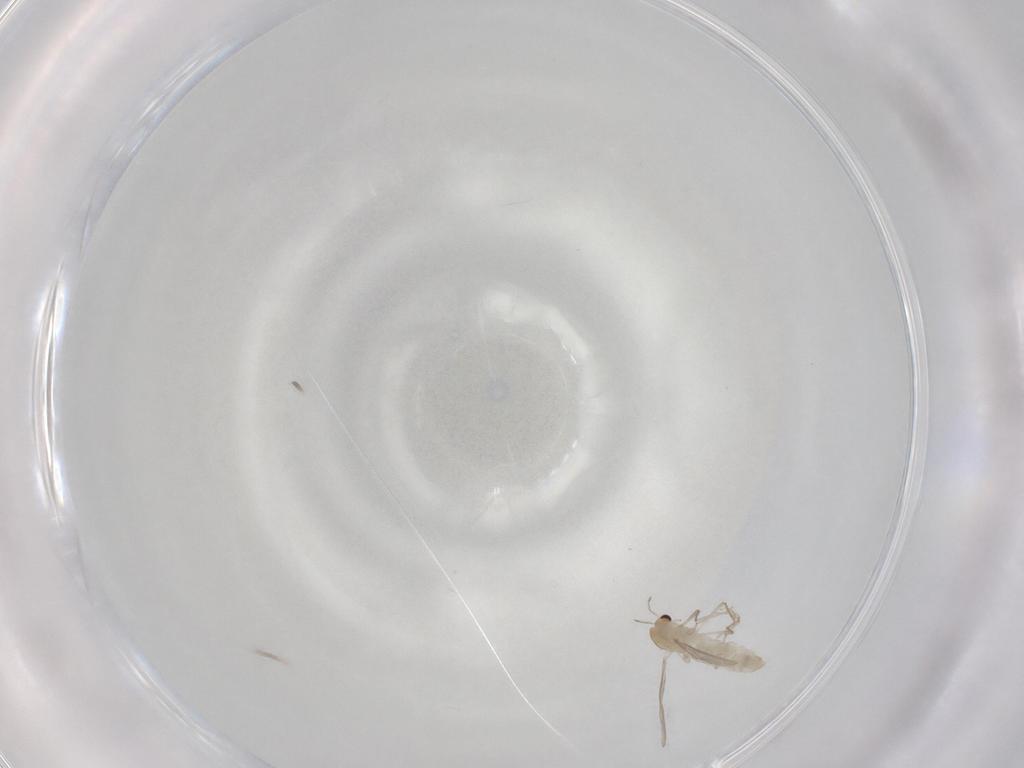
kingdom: Animalia
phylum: Arthropoda
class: Insecta
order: Diptera
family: Chironomidae
